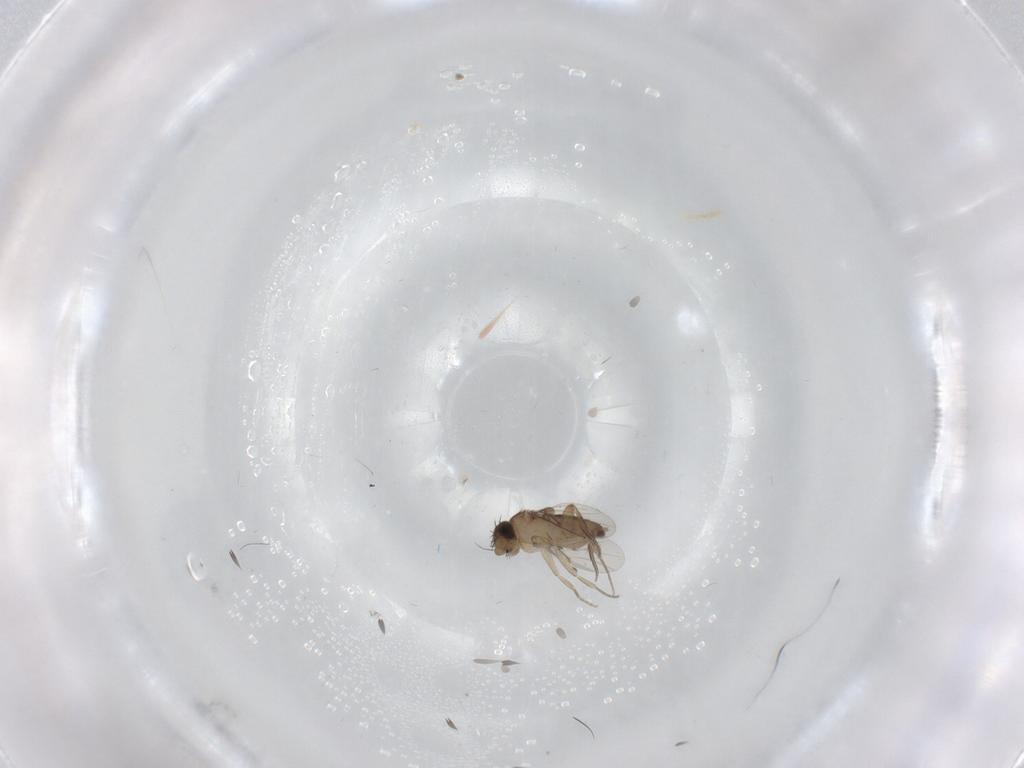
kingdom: Animalia
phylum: Arthropoda
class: Insecta
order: Diptera
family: Phoridae
